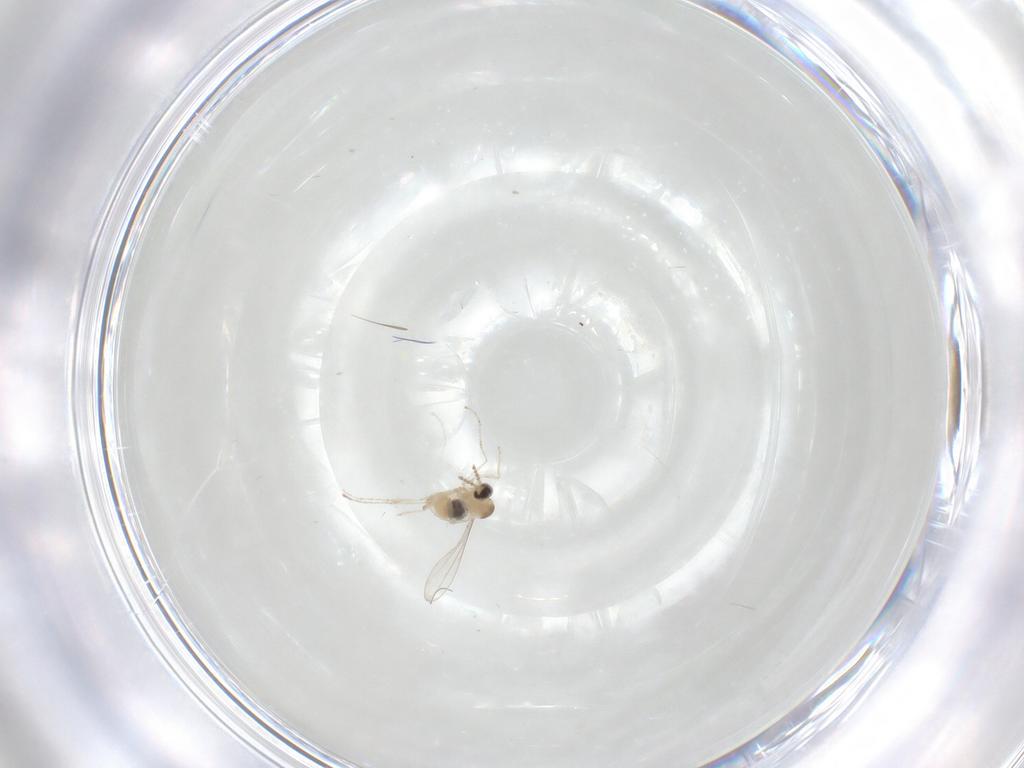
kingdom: Animalia
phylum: Arthropoda
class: Insecta
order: Diptera
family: Cecidomyiidae
